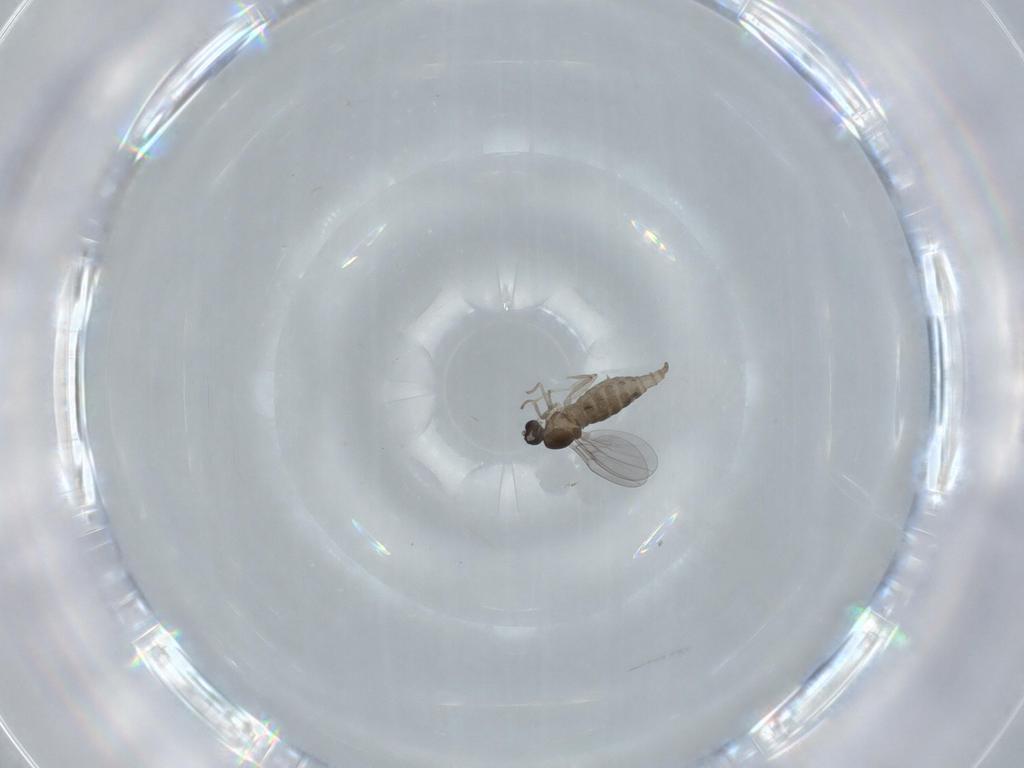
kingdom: Animalia
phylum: Arthropoda
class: Insecta
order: Diptera
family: Cecidomyiidae
